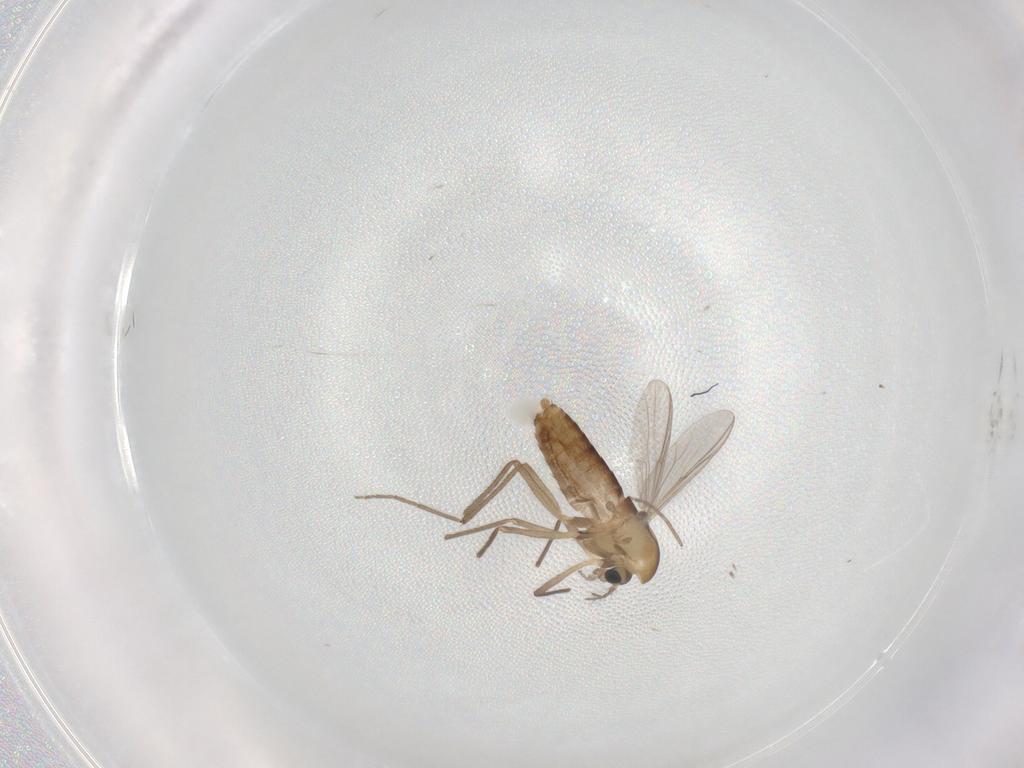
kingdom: Animalia
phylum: Arthropoda
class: Insecta
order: Diptera
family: Chironomidae
